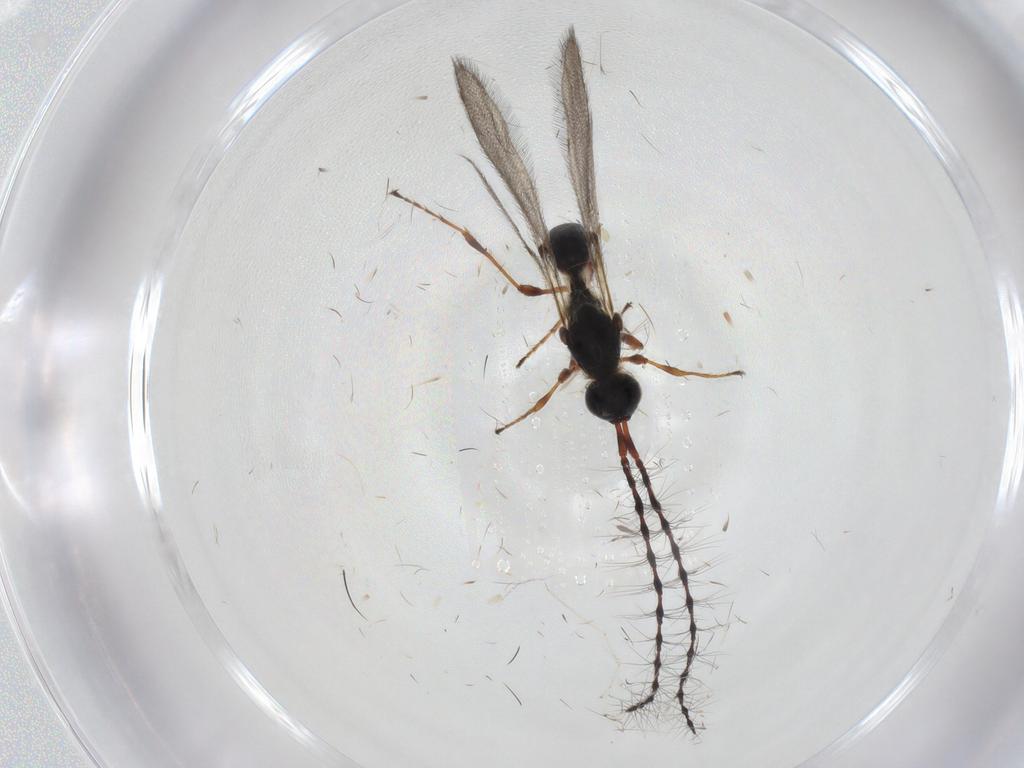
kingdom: Animalia
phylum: Arthropoda
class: Insecta
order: Hymenoptera
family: Diapriidae
